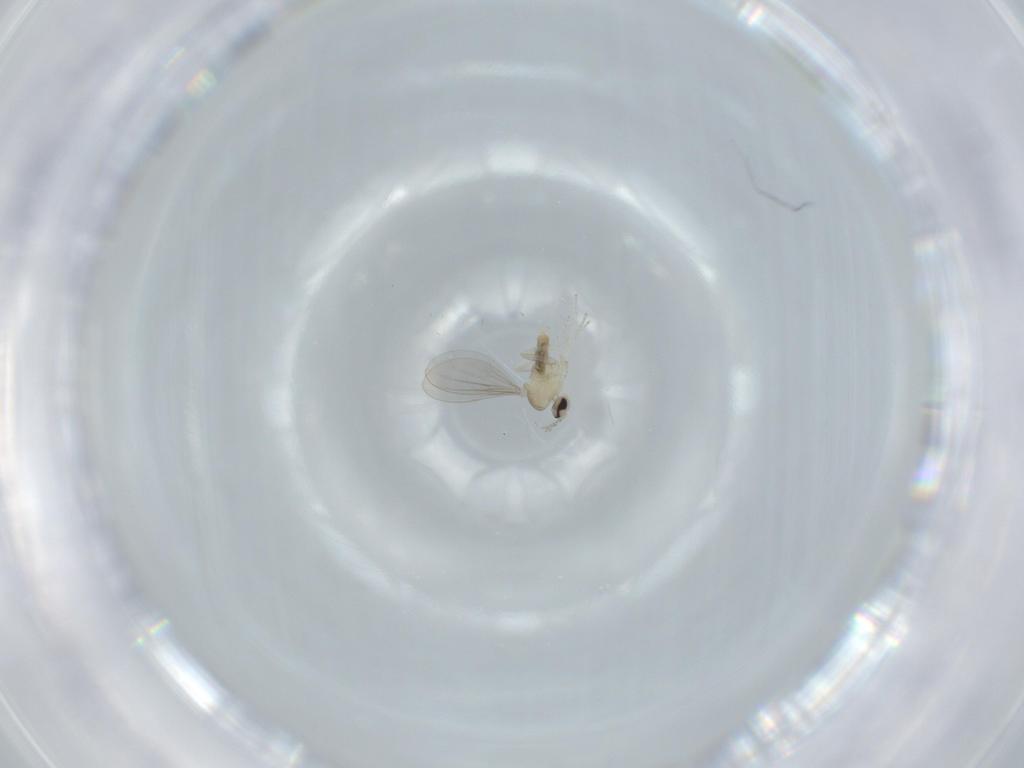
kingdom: Animalia
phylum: Arthropoda
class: Insecta
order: Diptera
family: Cecidomyiidae
